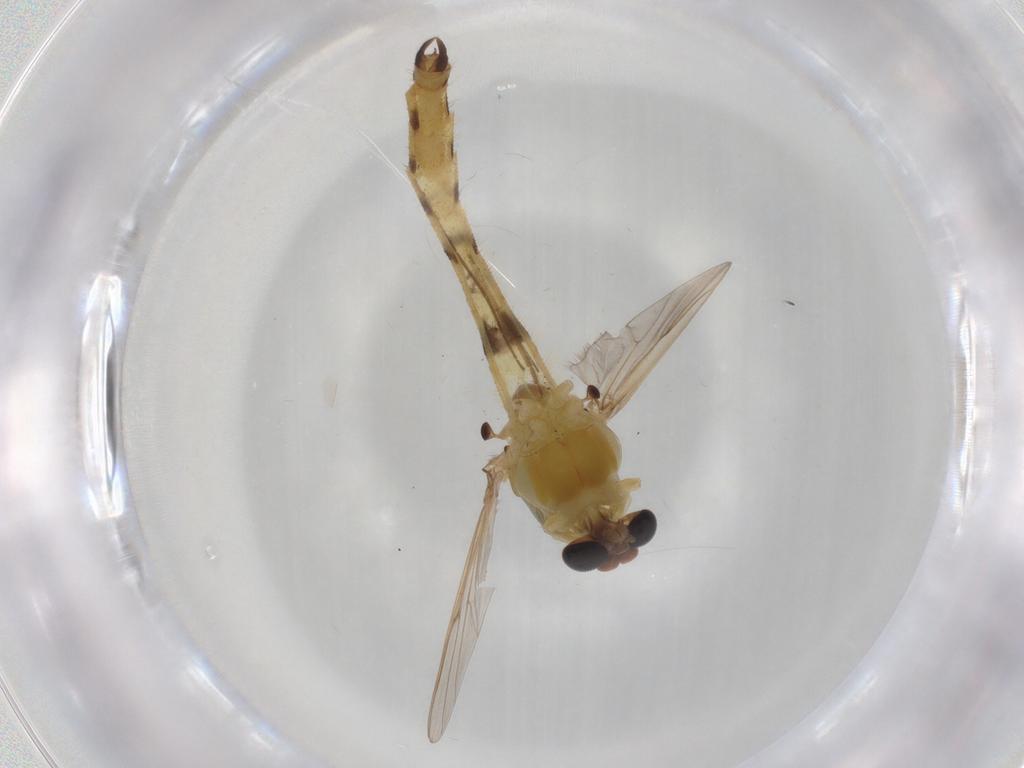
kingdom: Animalia
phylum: Arthropoda
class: Insecta
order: Diptera
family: Chironomidae
